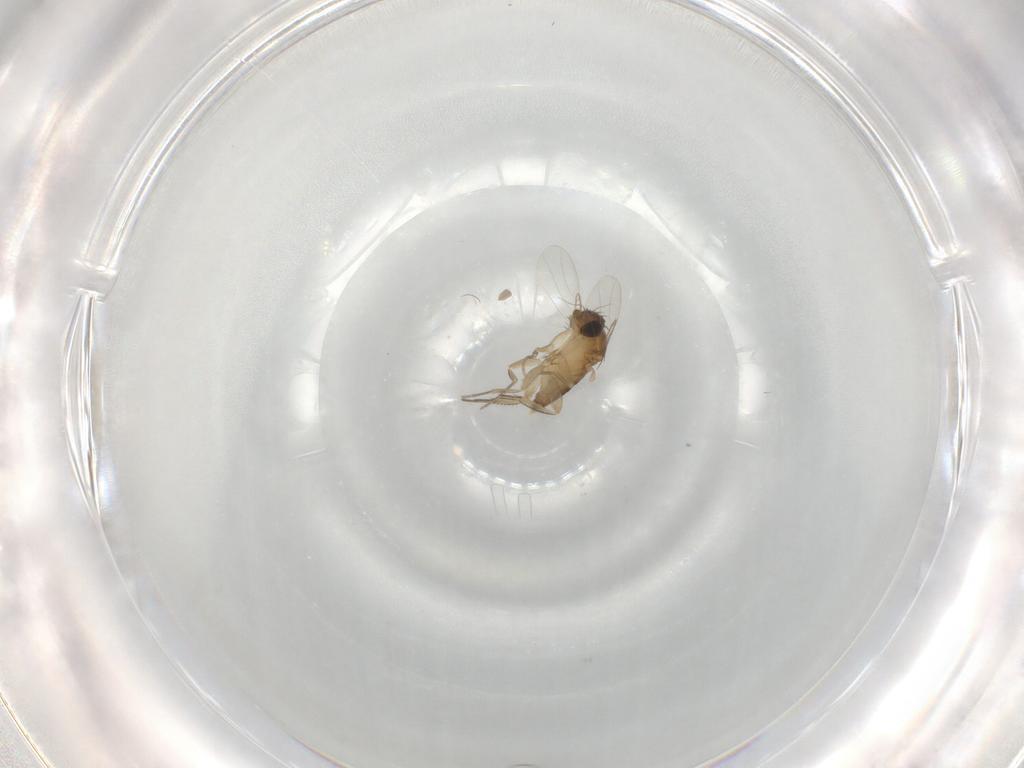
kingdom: Animalia
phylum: Arthropoda
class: Insecta
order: Diptera
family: Phoridae
